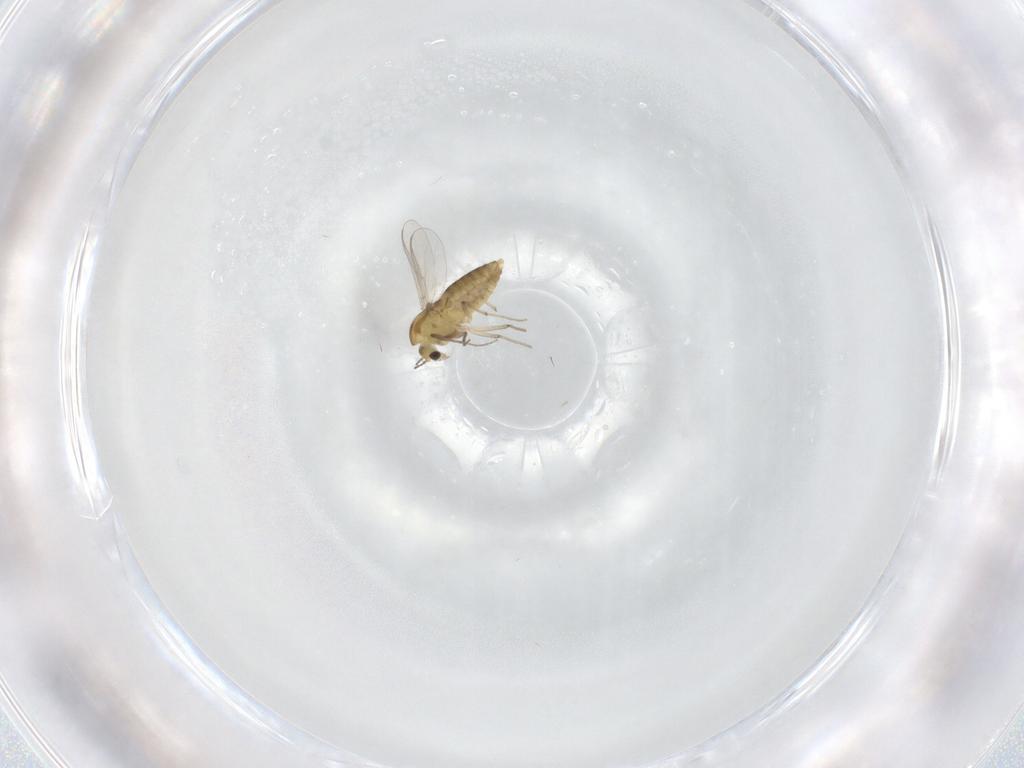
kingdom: Animalia
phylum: Arthropoda
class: Insecta
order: Diptera
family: Chironomidae
